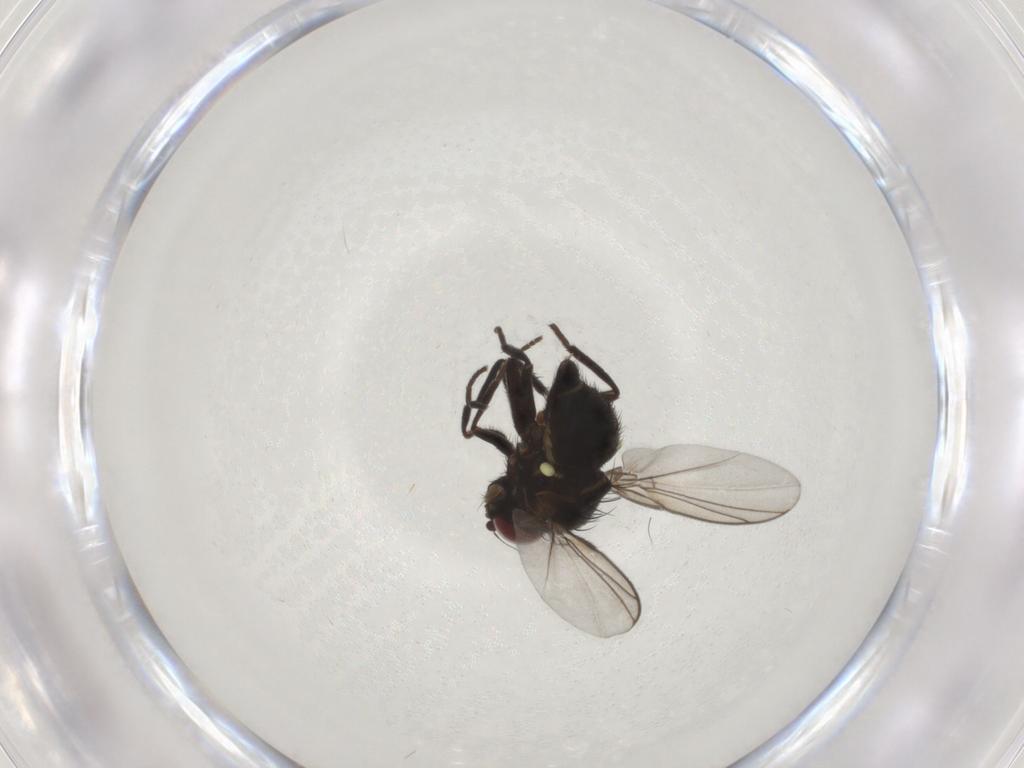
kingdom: Animalia
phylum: Arthropoda
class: Insecta
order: Diptera
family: Agromyzidae
